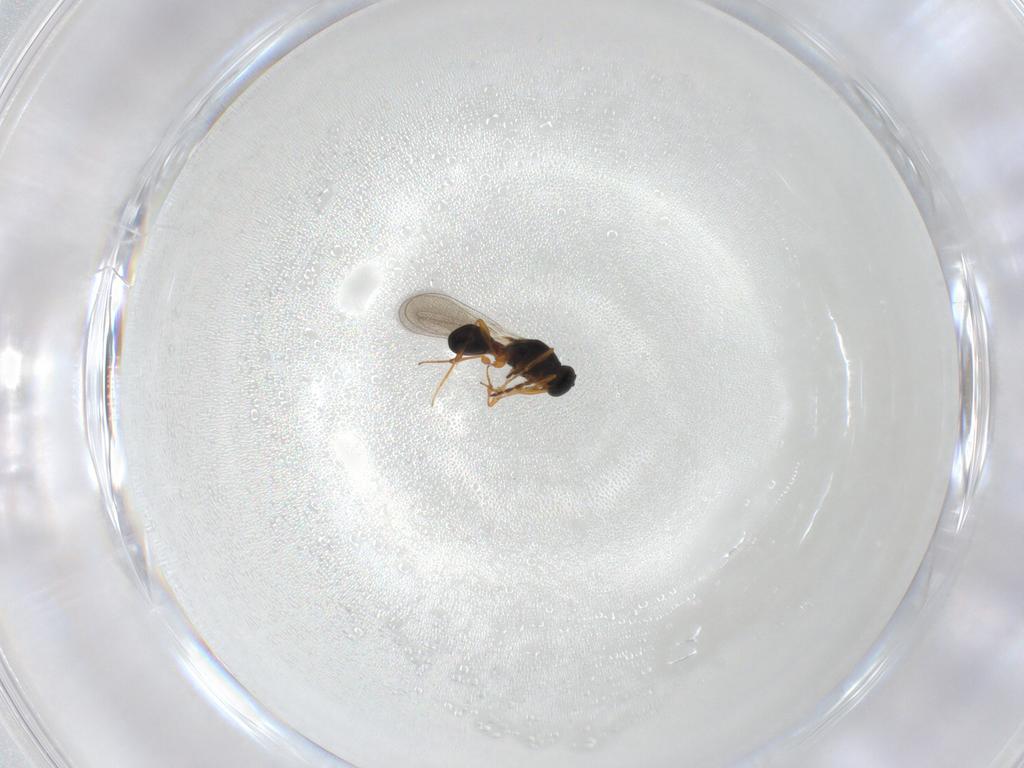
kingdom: Animalia
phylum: Arthropoda
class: Insecta
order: Hymenoptera
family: Platygastridae
